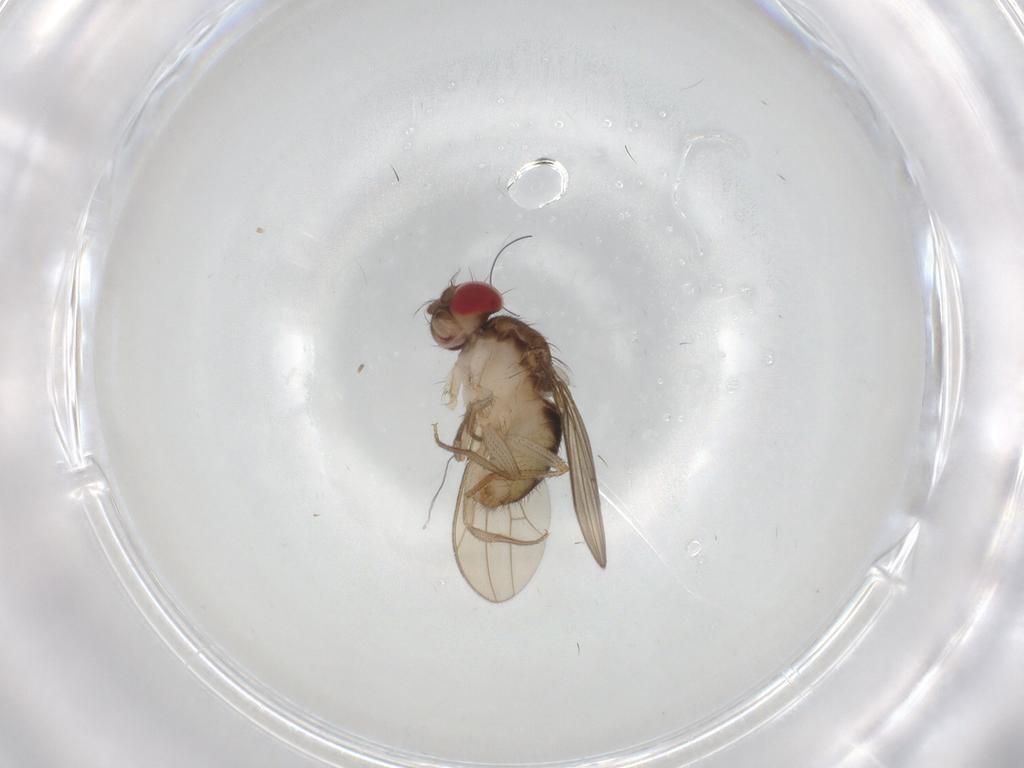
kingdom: Animalia
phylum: Arthropoda
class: Insecta
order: Diptera
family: Drosophilidae
